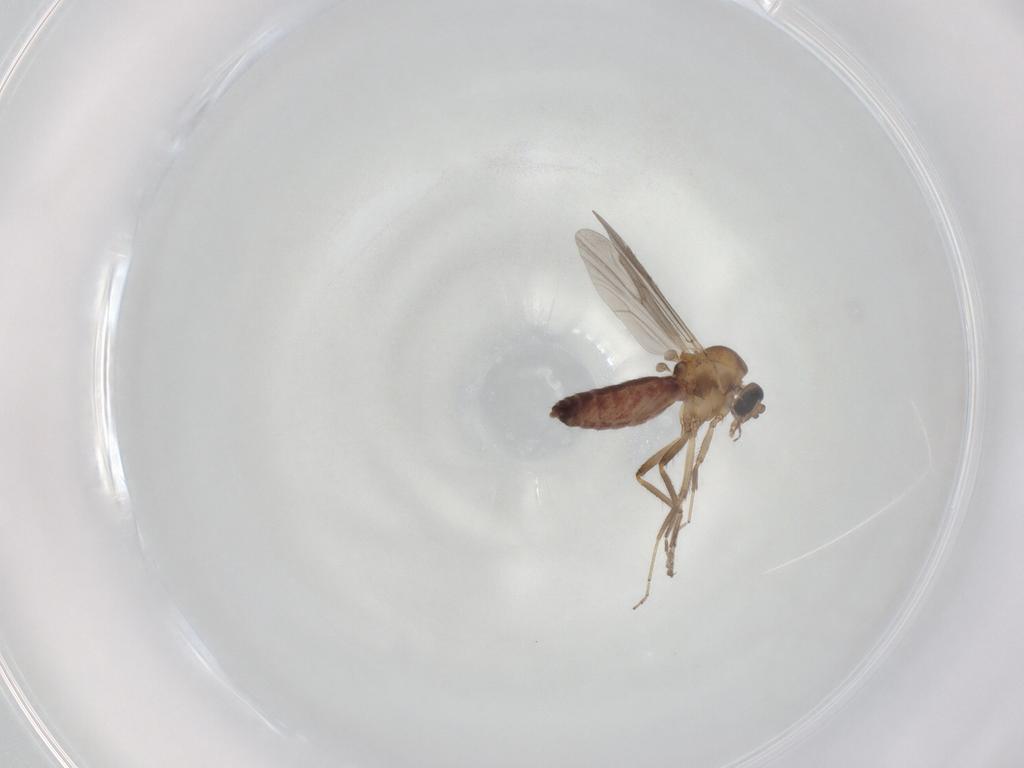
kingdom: Animalia
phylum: Arthropoda
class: Insecta
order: Diptera
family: Ceratopogonidae
